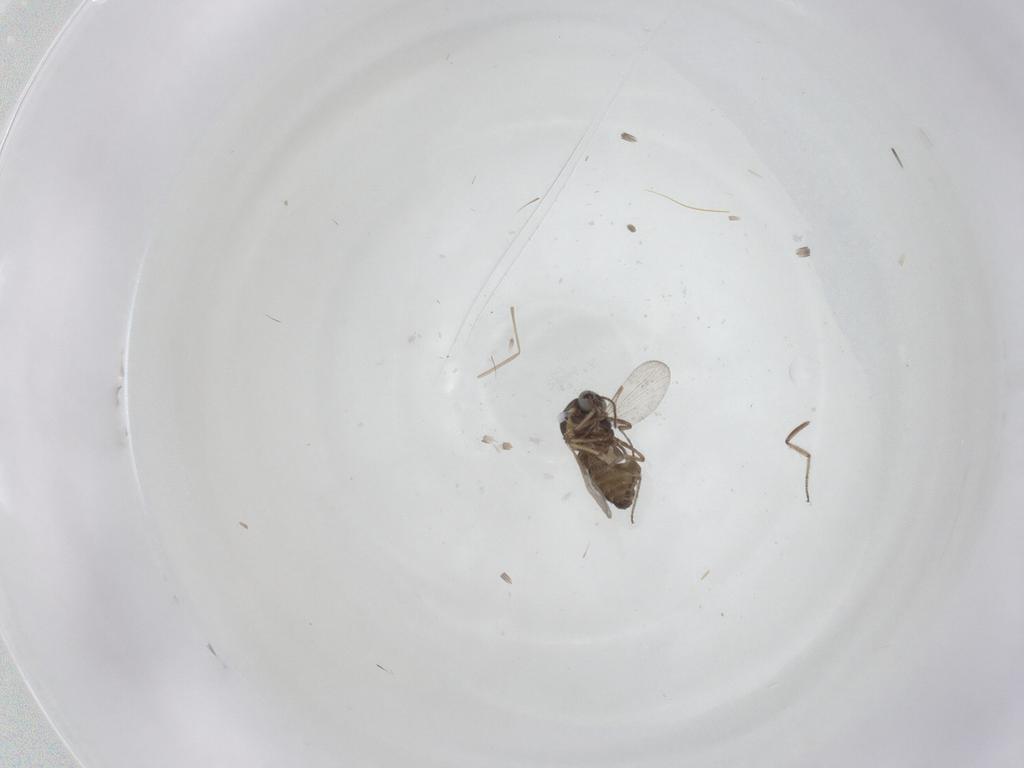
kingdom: Animalia
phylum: Arthropoda
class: Insecta
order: Diptera
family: Ceratopogonidae
